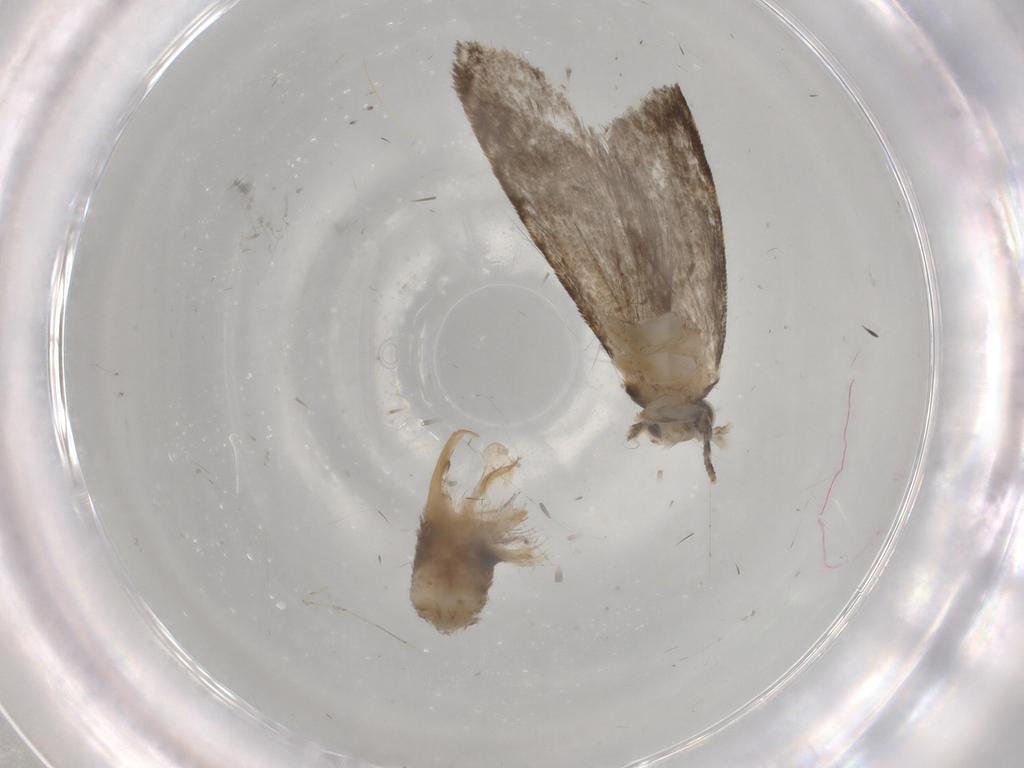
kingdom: Animalia
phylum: Arthropoda
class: Insecta
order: Lepidoptera
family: Tineidae
